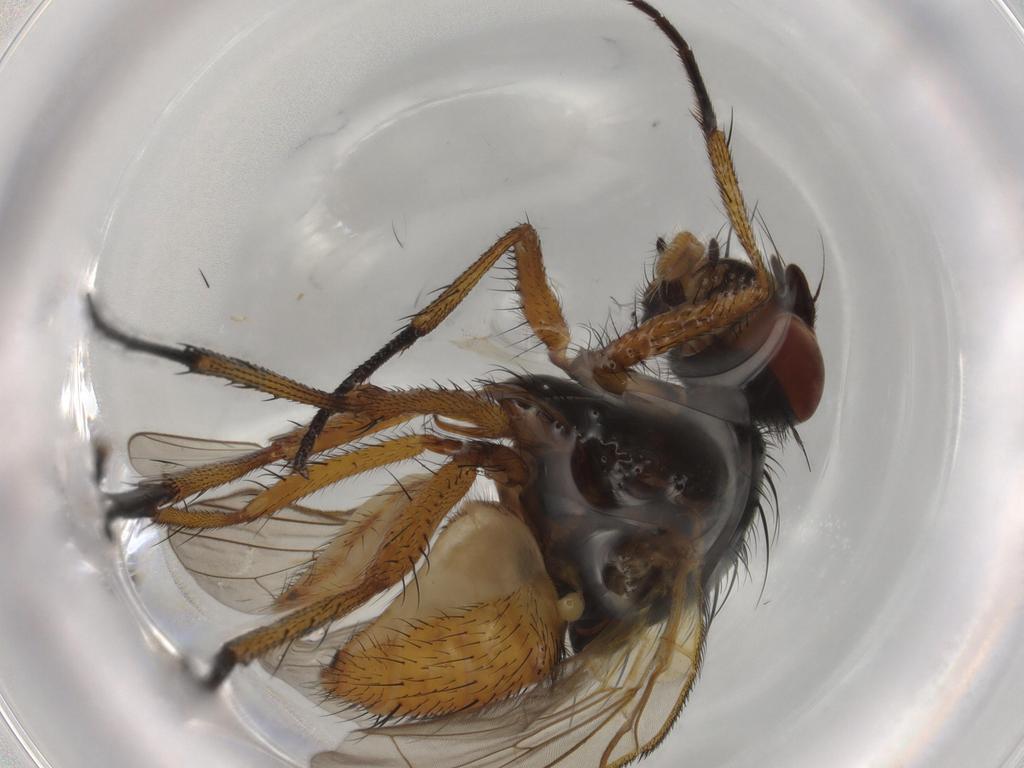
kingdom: Animalia
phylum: Arthropoda
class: Insecta
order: Diptera
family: Anthomyiidae
